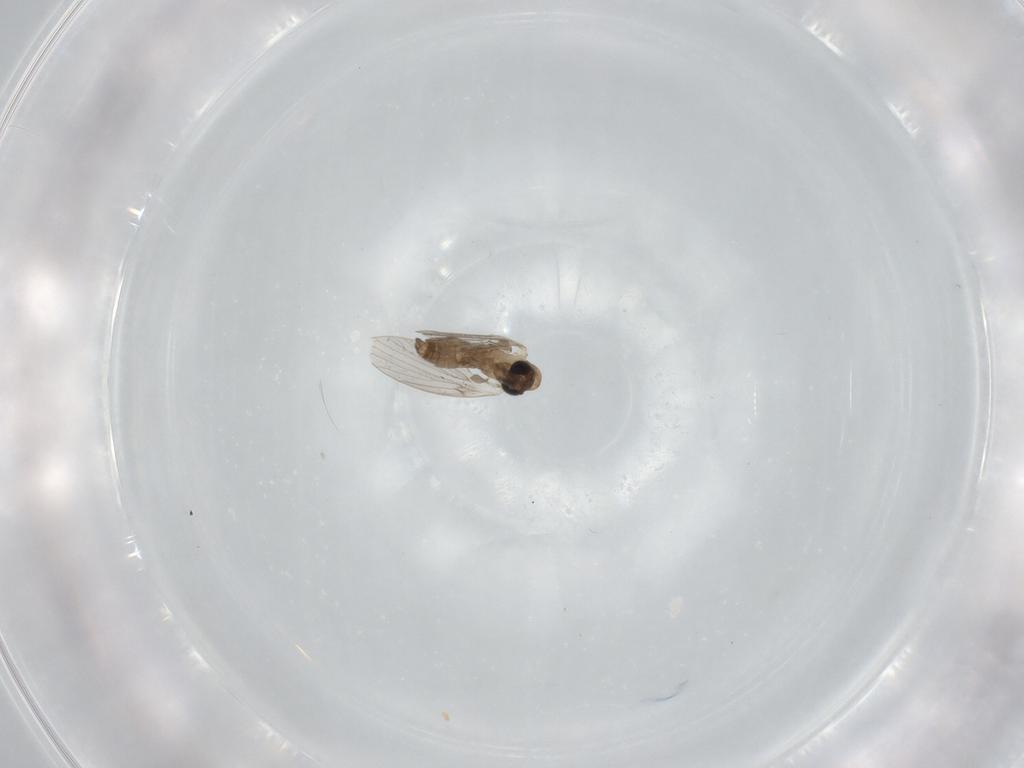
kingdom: Animalia
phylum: Arthropoda
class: Insecta
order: Diptera
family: Psychodidae
